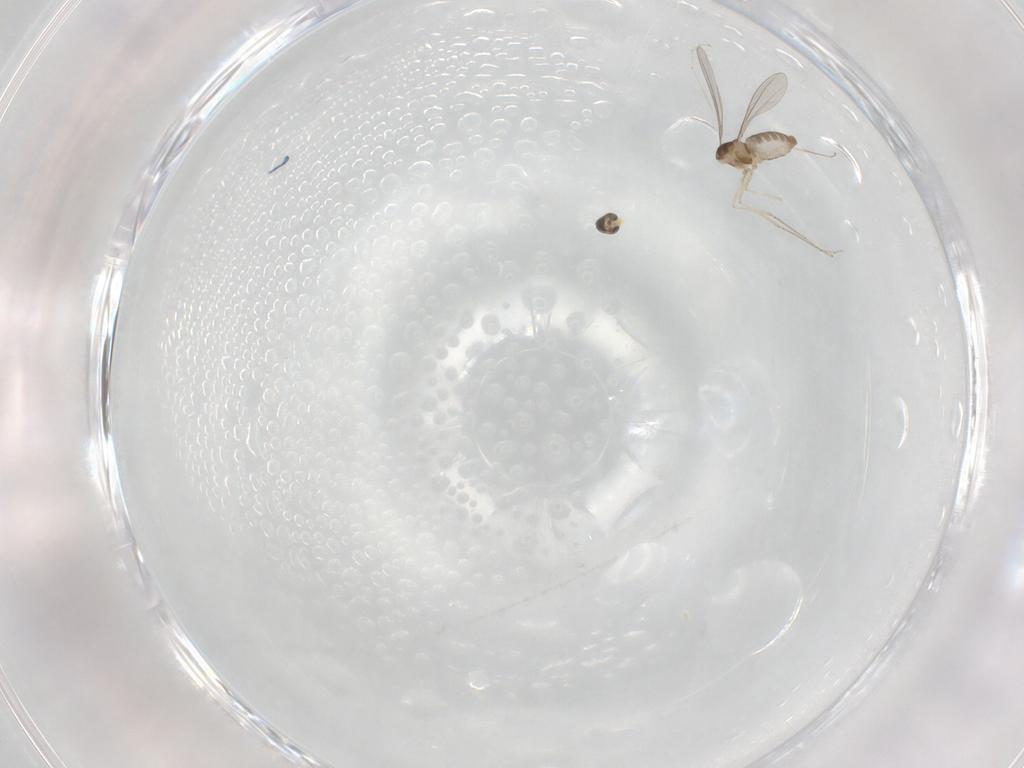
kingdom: Animalia
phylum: Arthropoda
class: Insecta
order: Diptera
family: Cecidomyiidae
